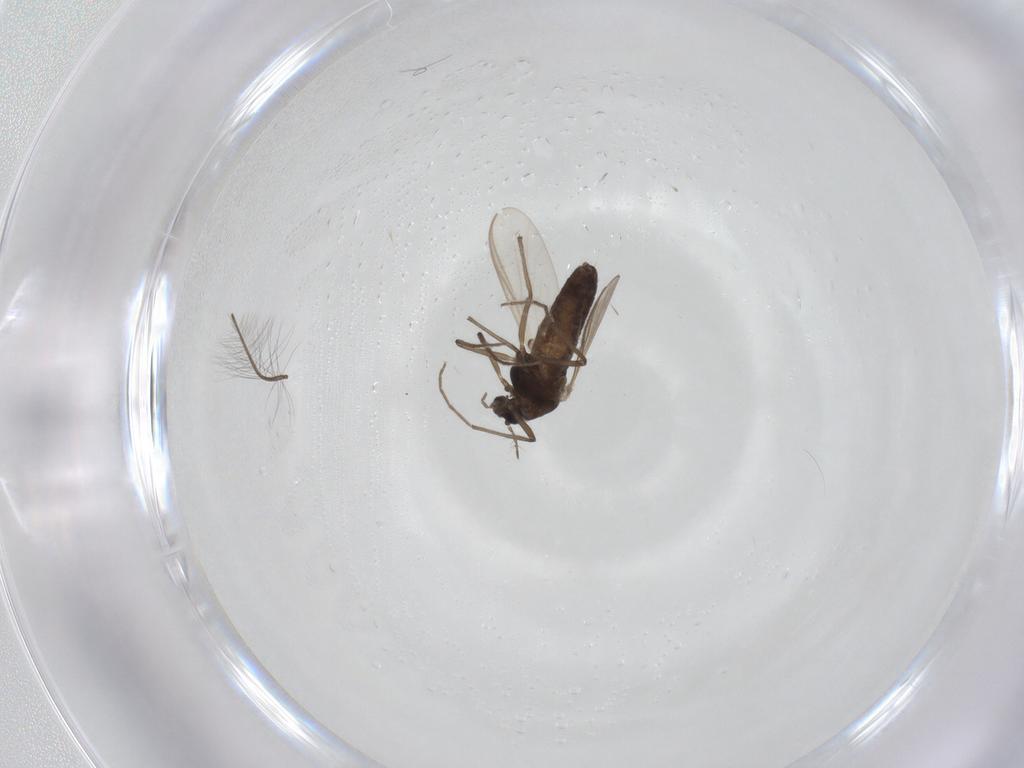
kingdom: Animalia
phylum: Arthropoda
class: Insecta
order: Diptera
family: Chironomidae
